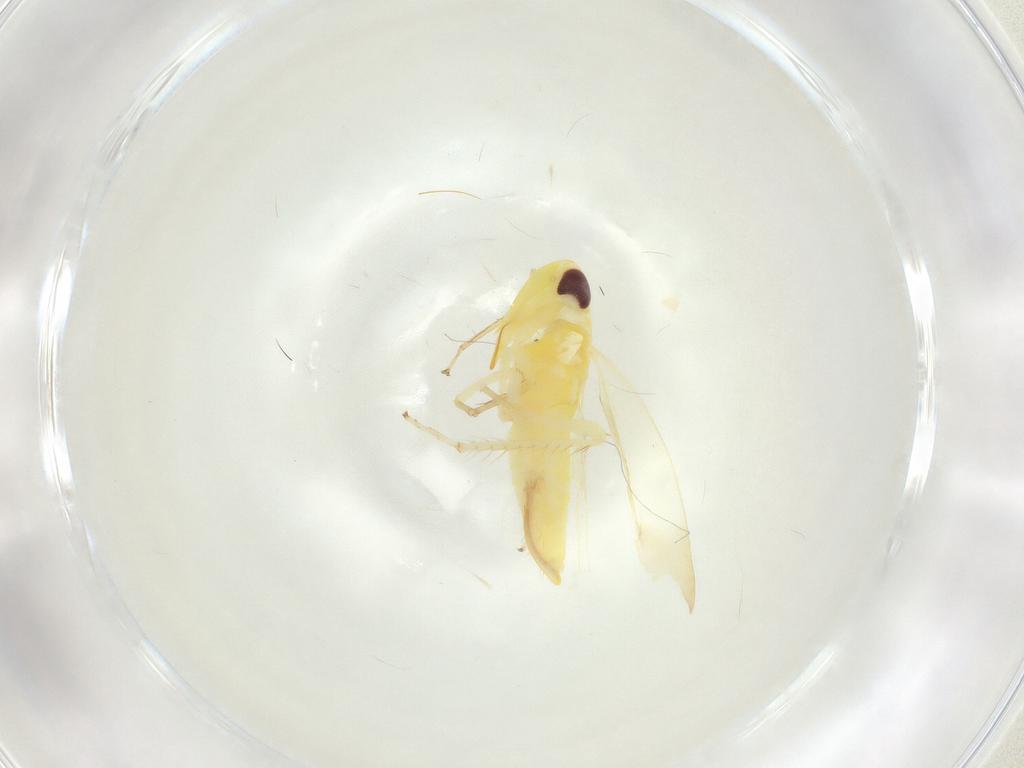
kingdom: Animalia
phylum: Arthropoda
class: Insecta
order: Hemiptera
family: Cicadellidae
